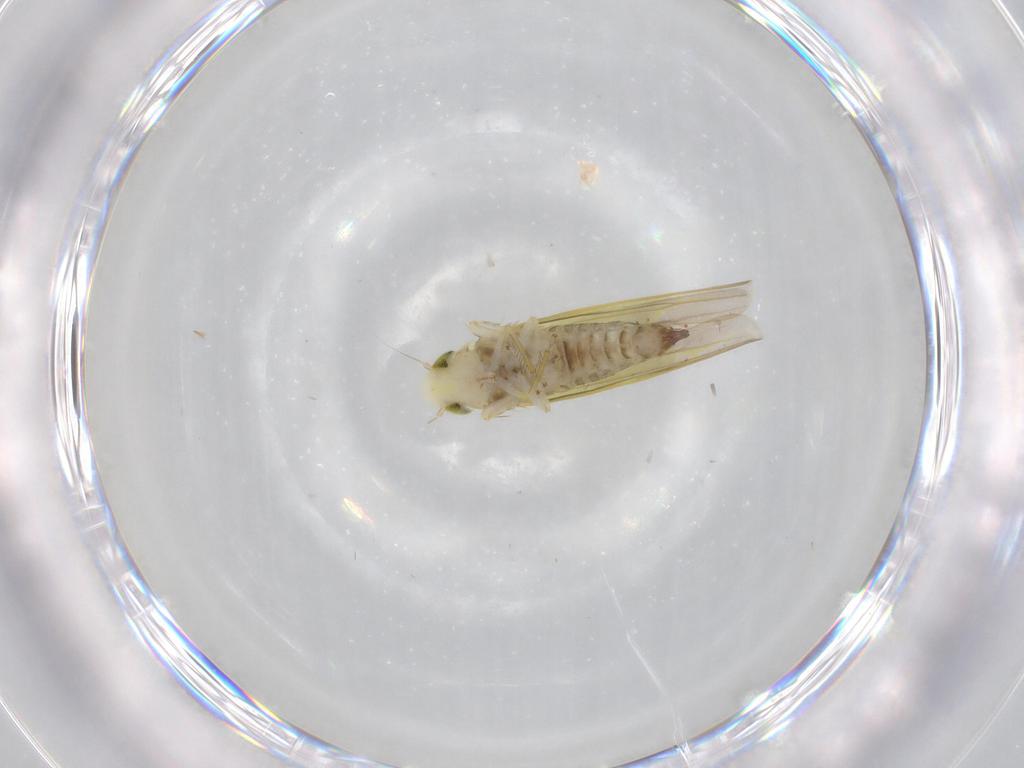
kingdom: Animalia
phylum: Arthropoda
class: Insecta
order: Hemiptera
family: Cicadellidae
